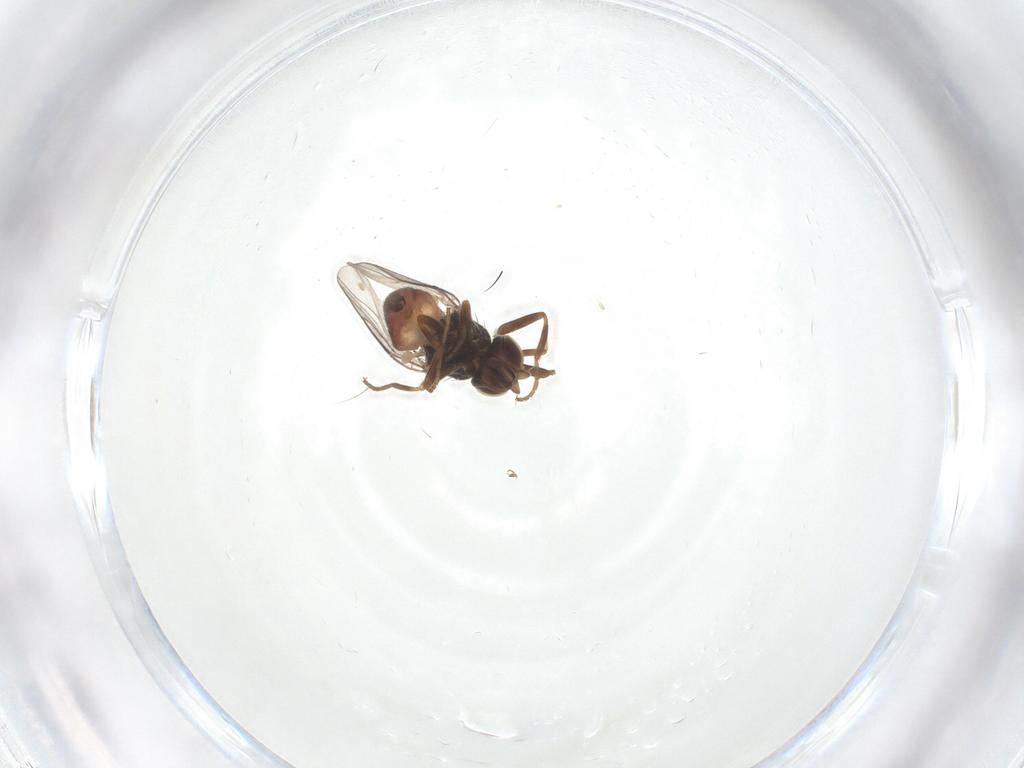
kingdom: Animalia
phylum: Arthropoda
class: Insecta
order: Diptera
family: Chloropidae
